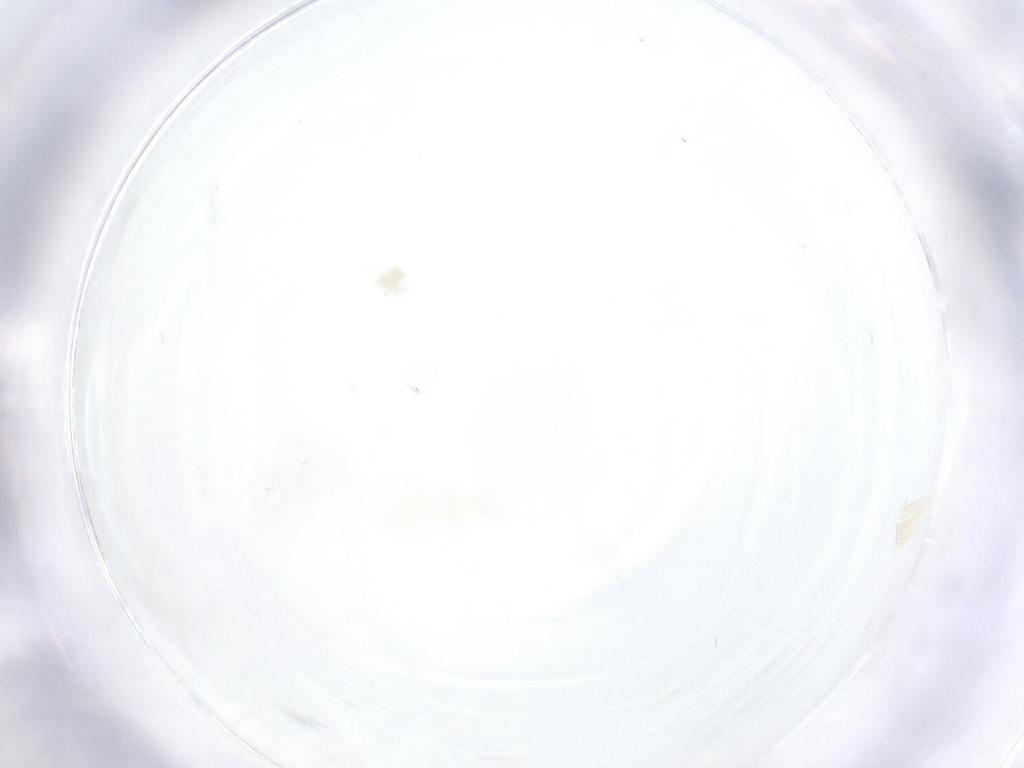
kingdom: Animalia
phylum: Arthropoda
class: Arachnida
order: Trombidiformes
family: Anystidae
